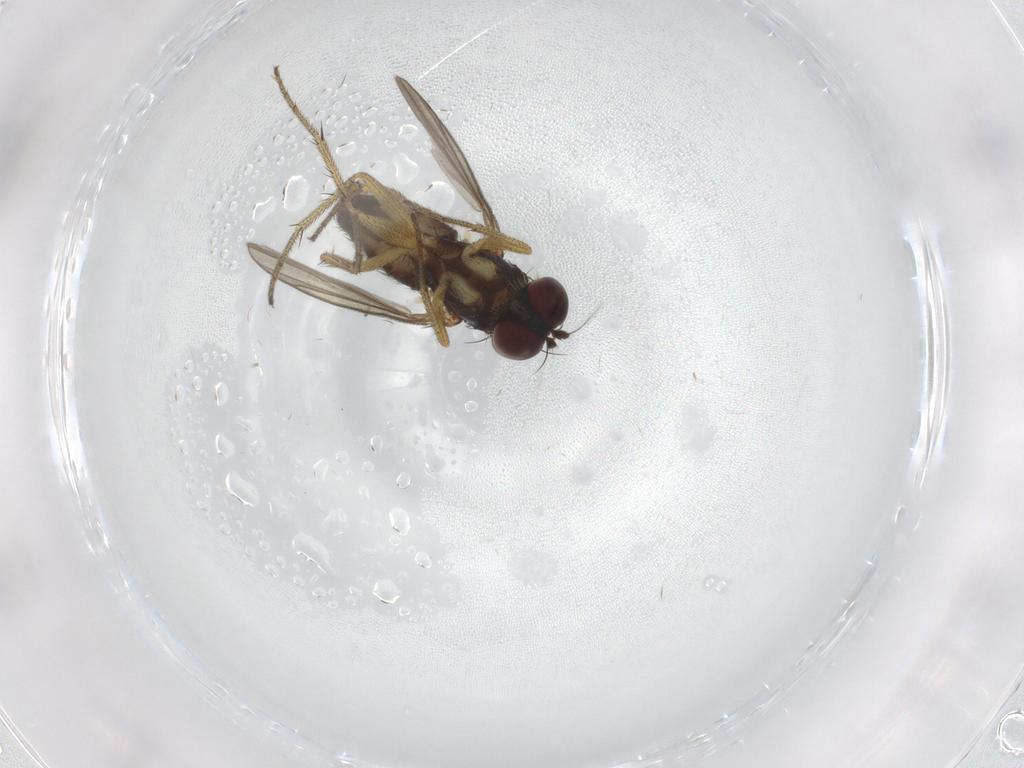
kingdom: Animalia
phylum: Arthropoda
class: Insecta
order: Diptera
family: Chironomidae
